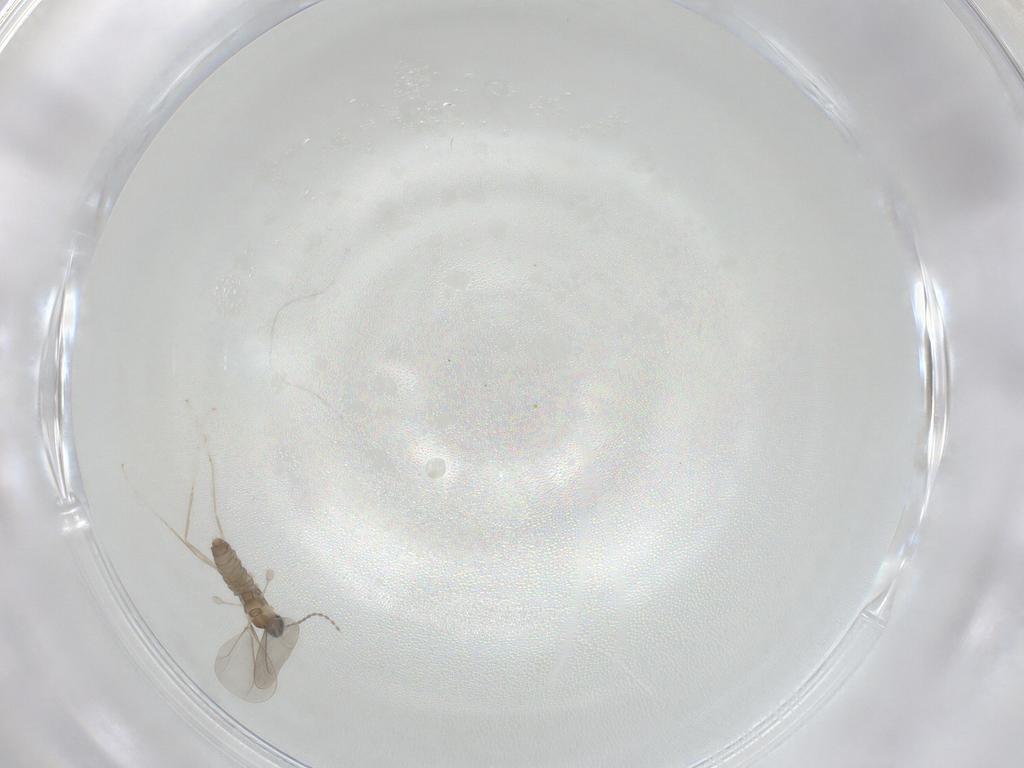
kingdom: Animalia
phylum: Arthropoda
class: Insecta
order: Diptera
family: Cecidomyiidae
